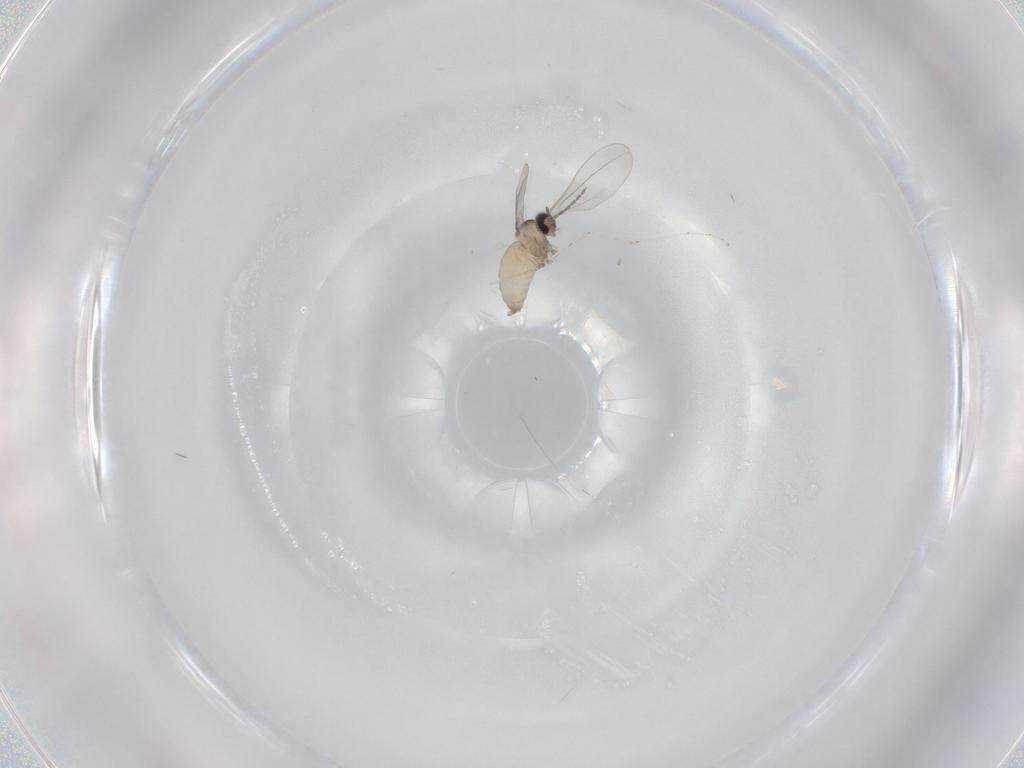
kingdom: Animalia
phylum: Arthropoda
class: Insecta
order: Diptera
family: Cecidomyiidae
